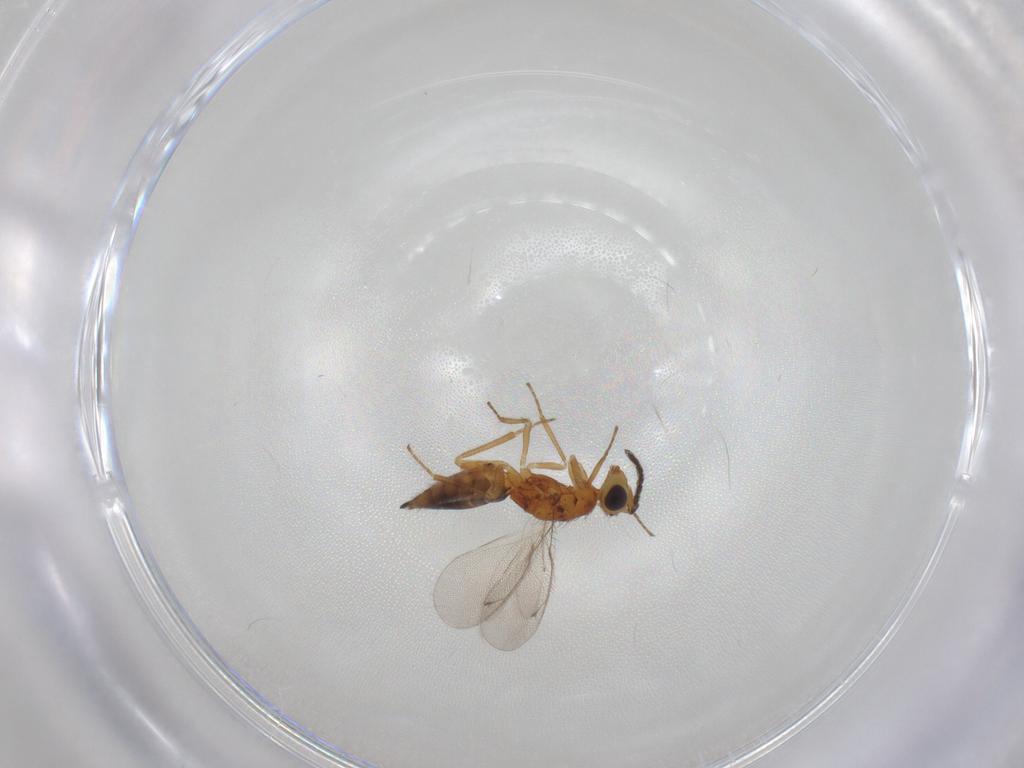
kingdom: Animalia
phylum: Arthropoda
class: Insecta
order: Hymenoptera
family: Eulophidae
